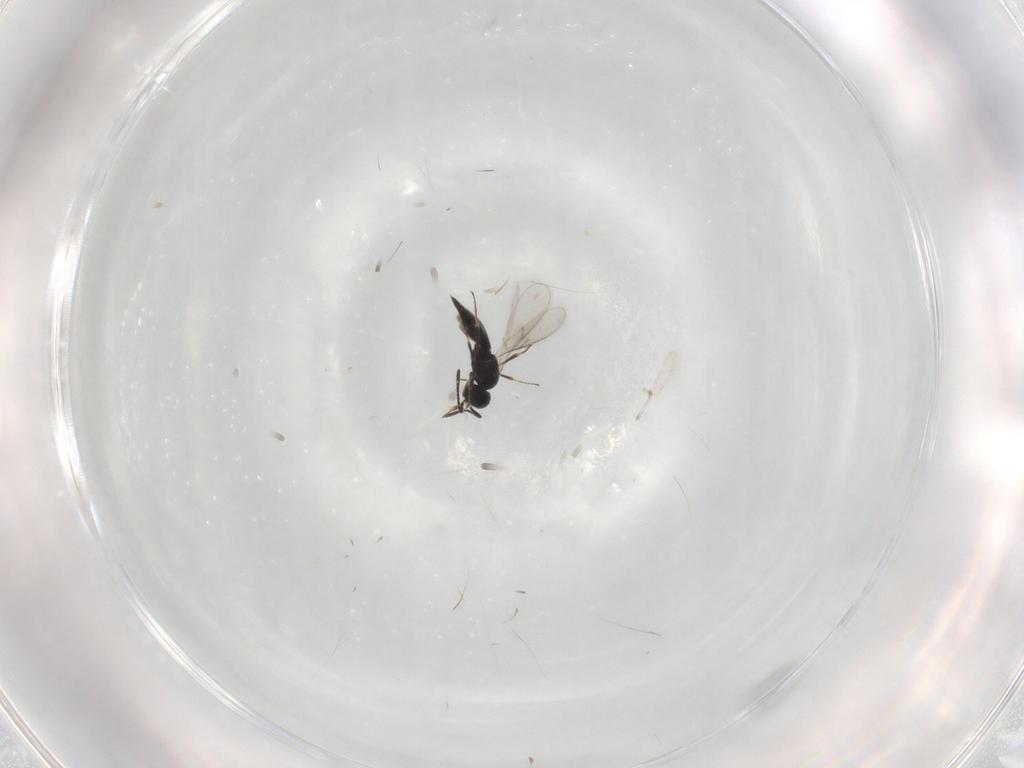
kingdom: Animalia
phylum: Arthropoda
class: Insecta
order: Hymenoptera
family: Scelionidae
